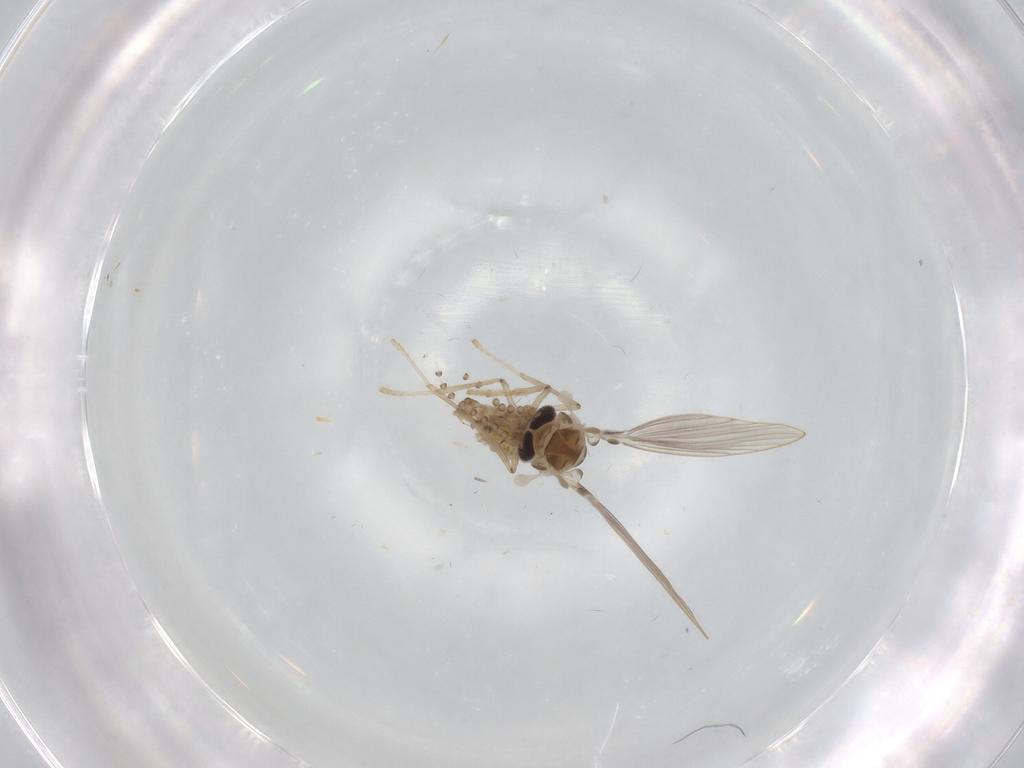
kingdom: Animalia
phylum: Arthropoda
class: Insecta
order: Diptera
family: Psychodidae
